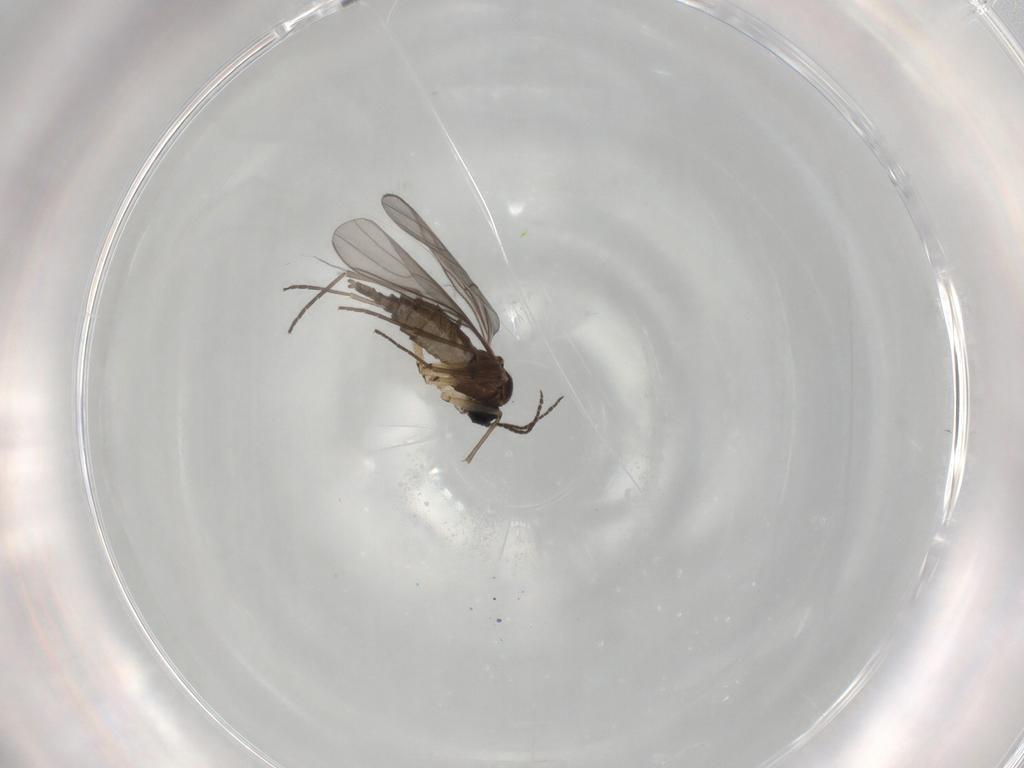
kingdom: Animalia
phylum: Arthropoda
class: Insecta
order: Diptera
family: Sciaridae
